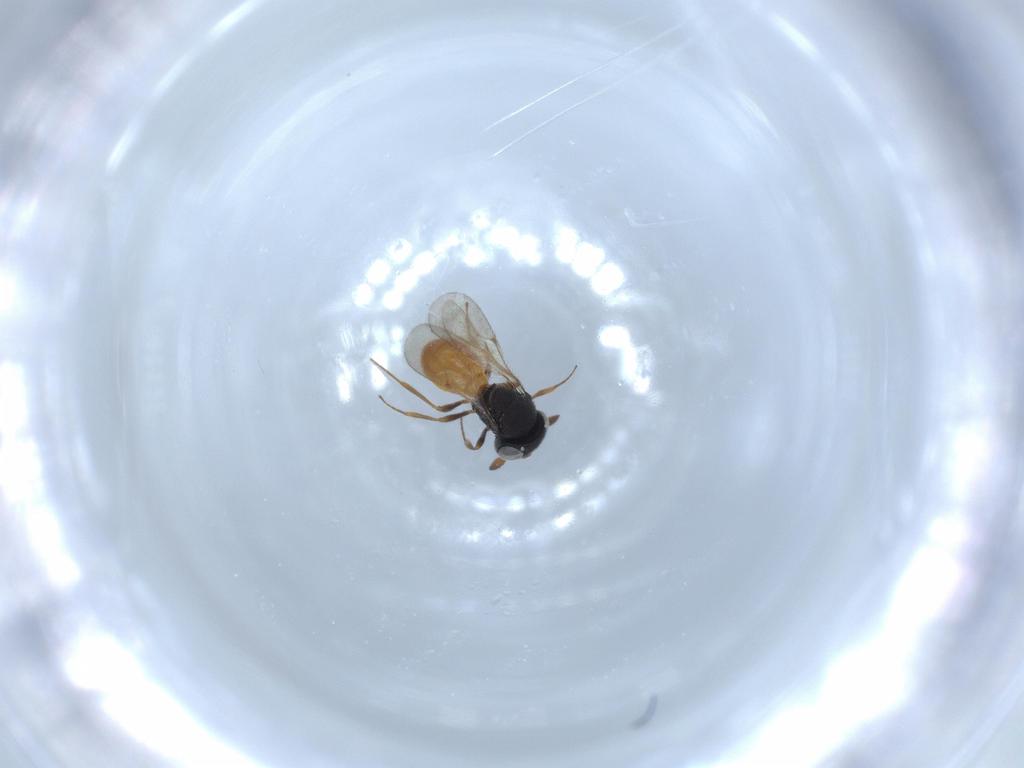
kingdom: Animalia
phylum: Arthropoda
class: Insecta
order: Hymenoptera
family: Scelionidae
